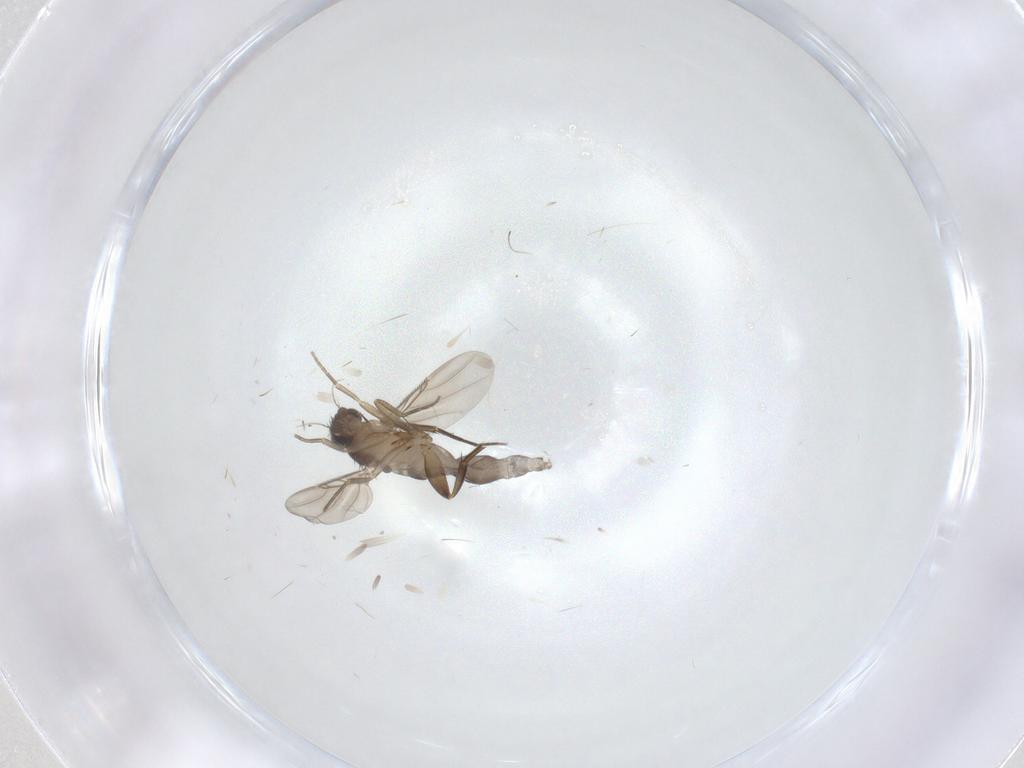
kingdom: Animalia
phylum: Arthropoda
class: Insecta
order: Diptera
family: Phoridae
